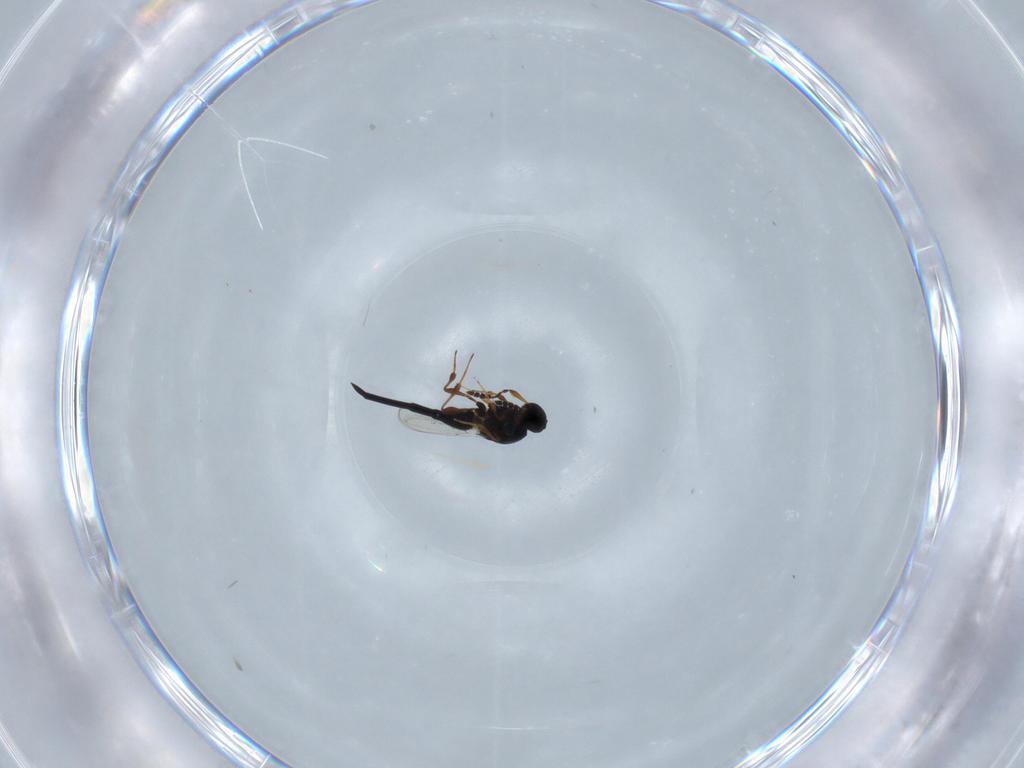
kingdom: Animalia
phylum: Arthropoda
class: Insecta
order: Hymenoptera
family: Platygastridae
